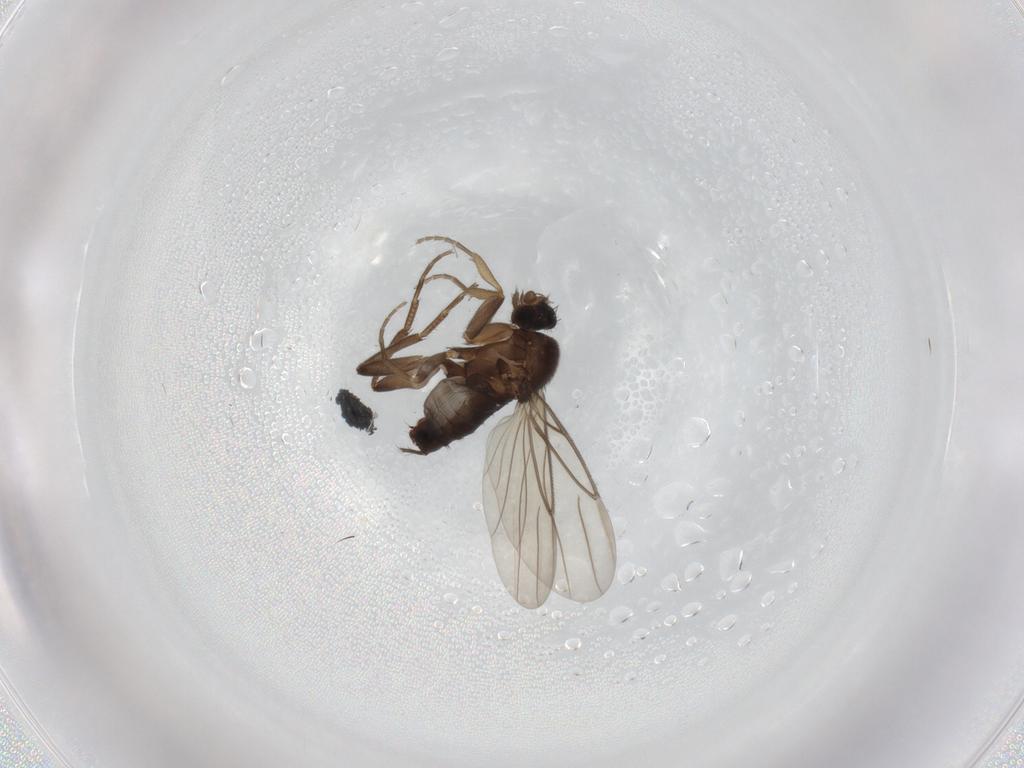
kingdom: Animalia
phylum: Arthropoda
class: Insecta
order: Diptera
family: Dolichopodidae
